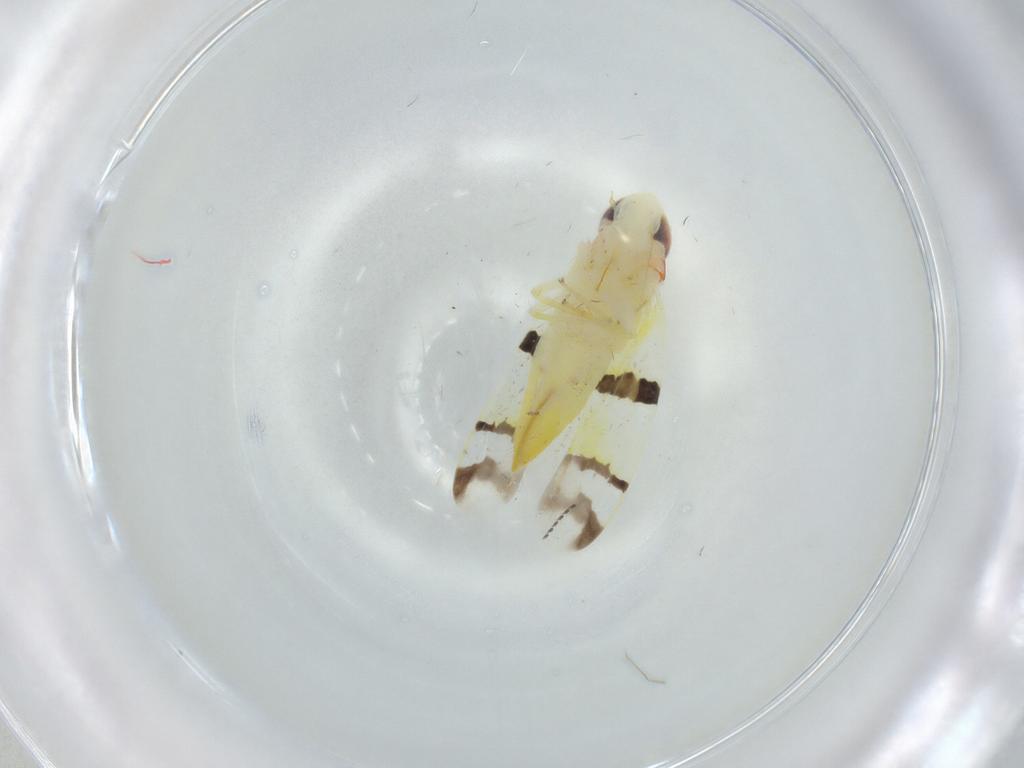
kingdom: Animalia
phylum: Arthropoda
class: Insecta
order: Hemiptera
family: Cicadellidae
